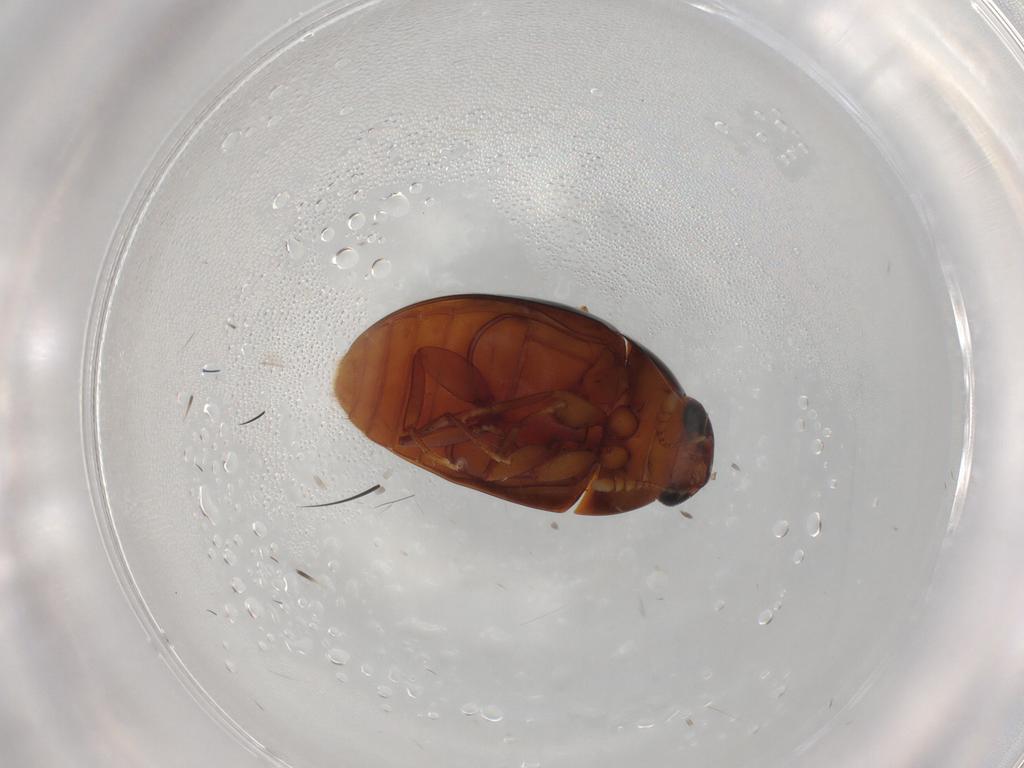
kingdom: Animalia
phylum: Arthropoda
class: Insecta
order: Coleoptera
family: Phalacridae
